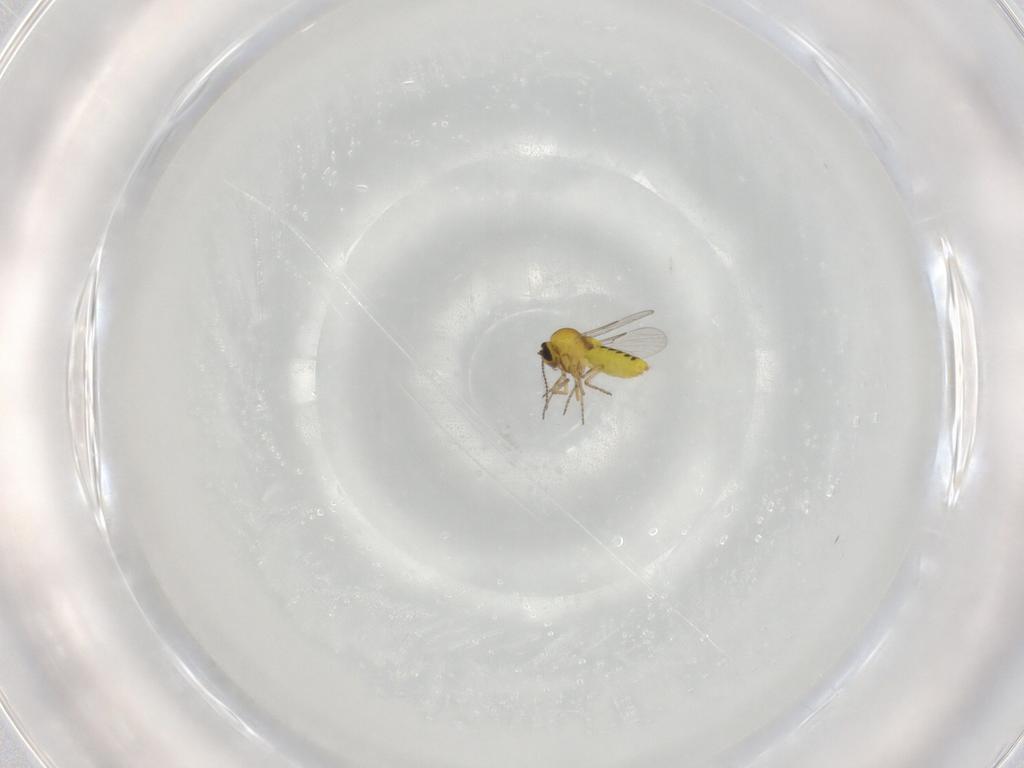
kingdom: Animalia
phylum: Arthropoda
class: Insecta
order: Diptera
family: Ceratopogonidae
